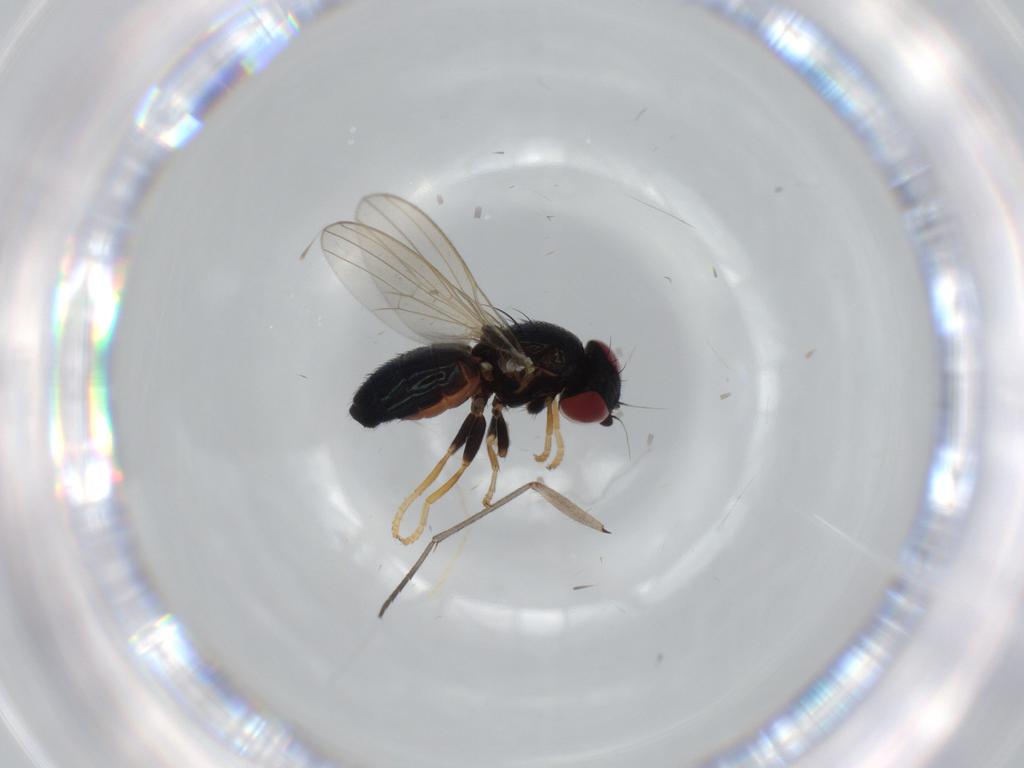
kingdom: Animalia
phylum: Arthropoda
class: Insecta
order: Diptera
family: Chamaemyiidae
